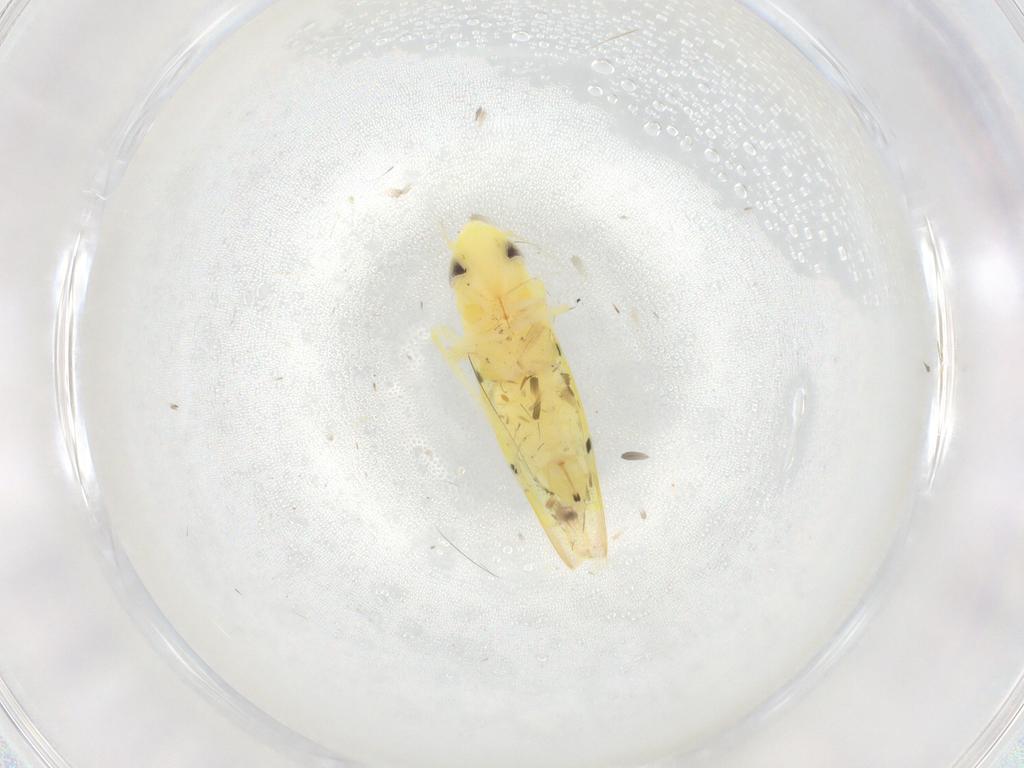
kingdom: Animalia
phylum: Arthropoda
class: Insecta
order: Hemiptera
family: Cicadellidae
